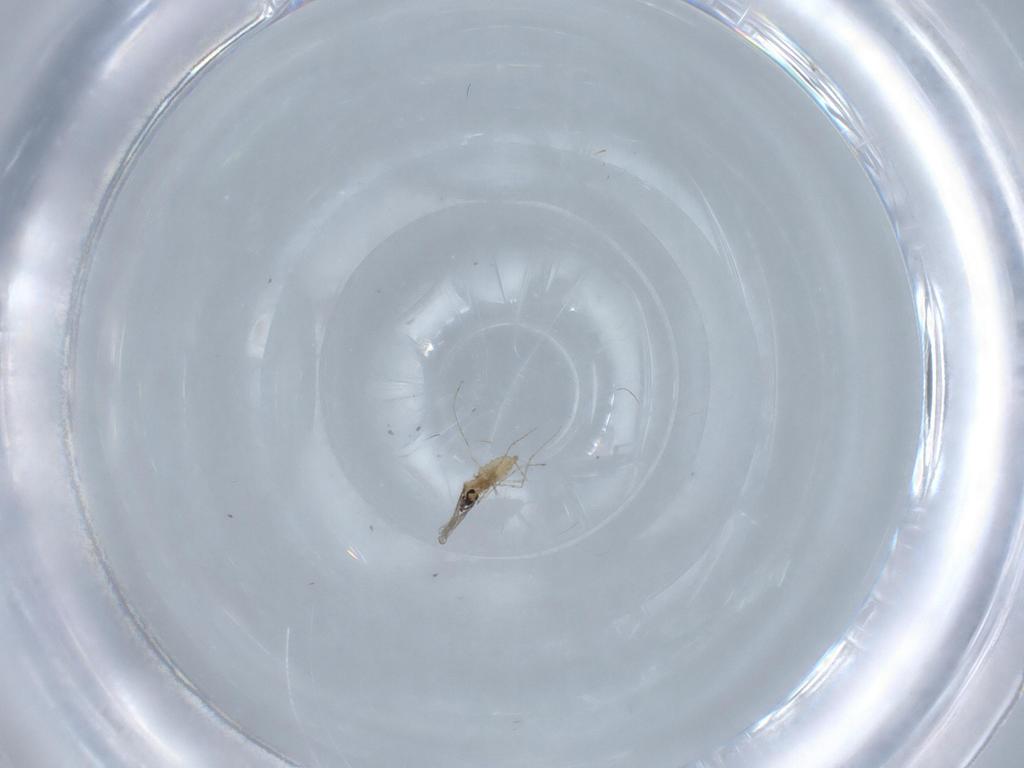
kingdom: Animalia
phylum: Arthropoda
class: Insecta
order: Diptera
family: Cecidomyiidae
